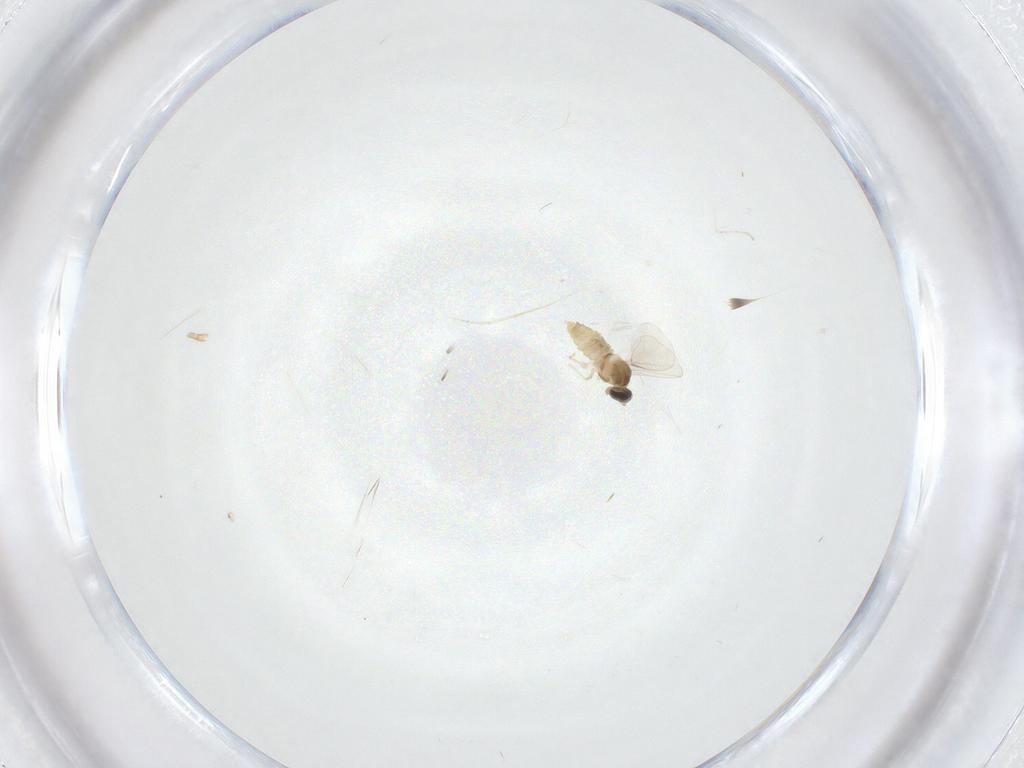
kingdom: Animalia
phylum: Arthropoda
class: Insecta
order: Diptera
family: Cecidomyiidae
